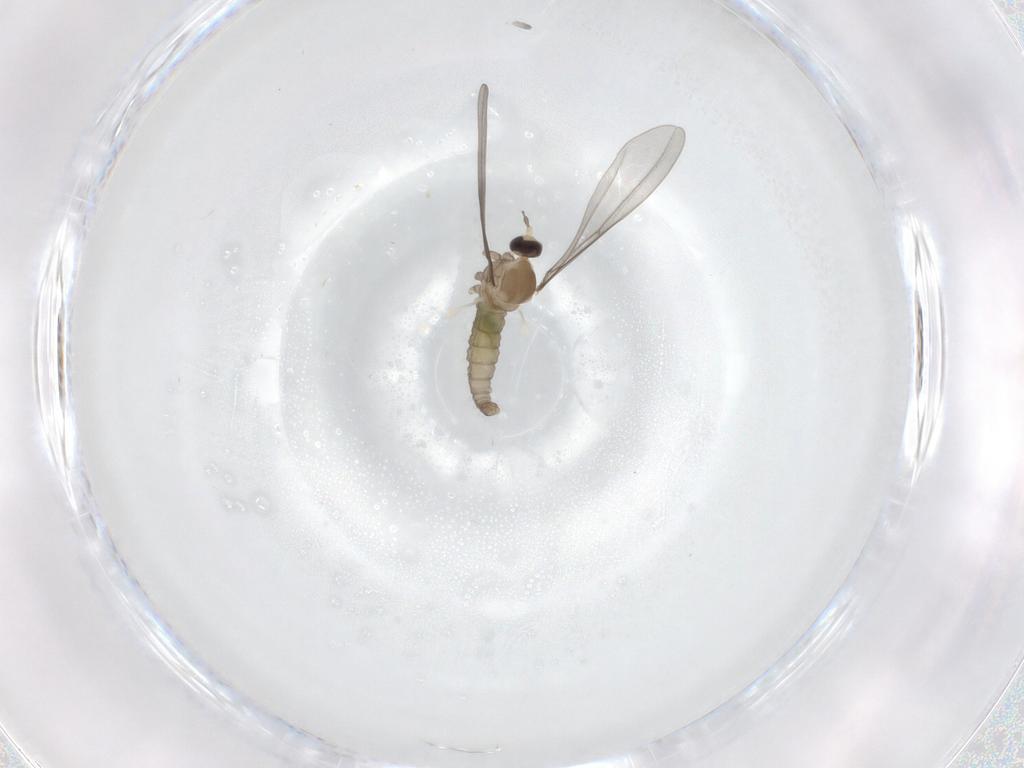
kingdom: Animalia
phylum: Arthropoda
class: Insecta
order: Diptera
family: Cecidomyiidae
